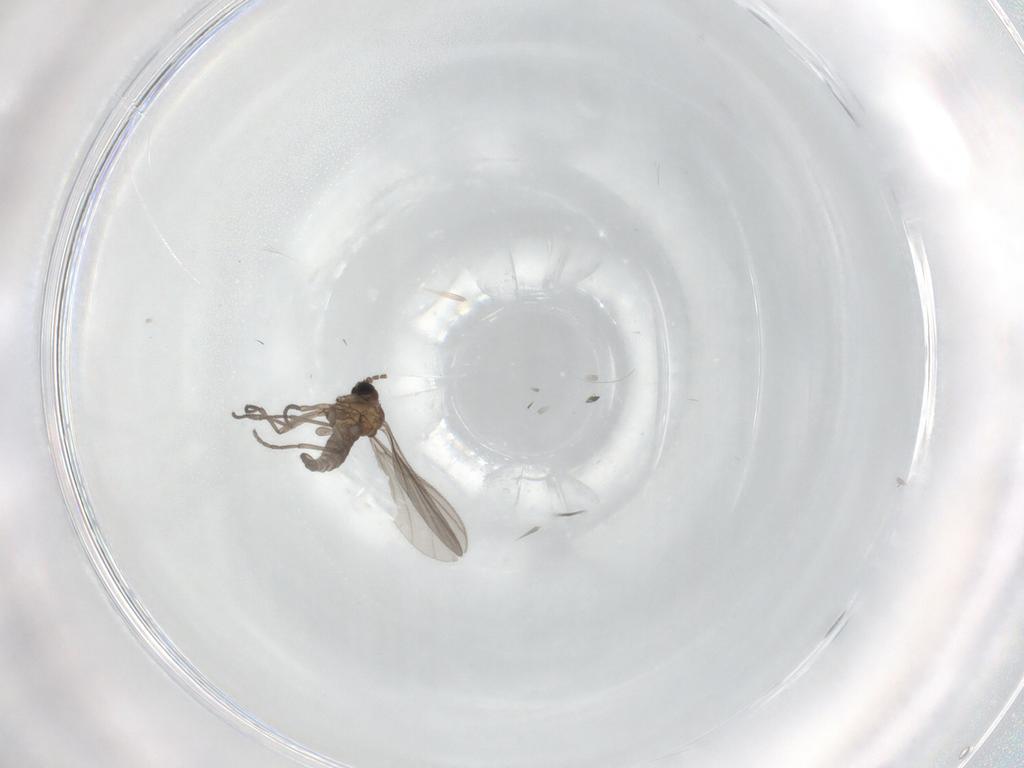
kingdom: Animalia
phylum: Arthropoda
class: Insecta
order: Diptera
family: Sciaridae
